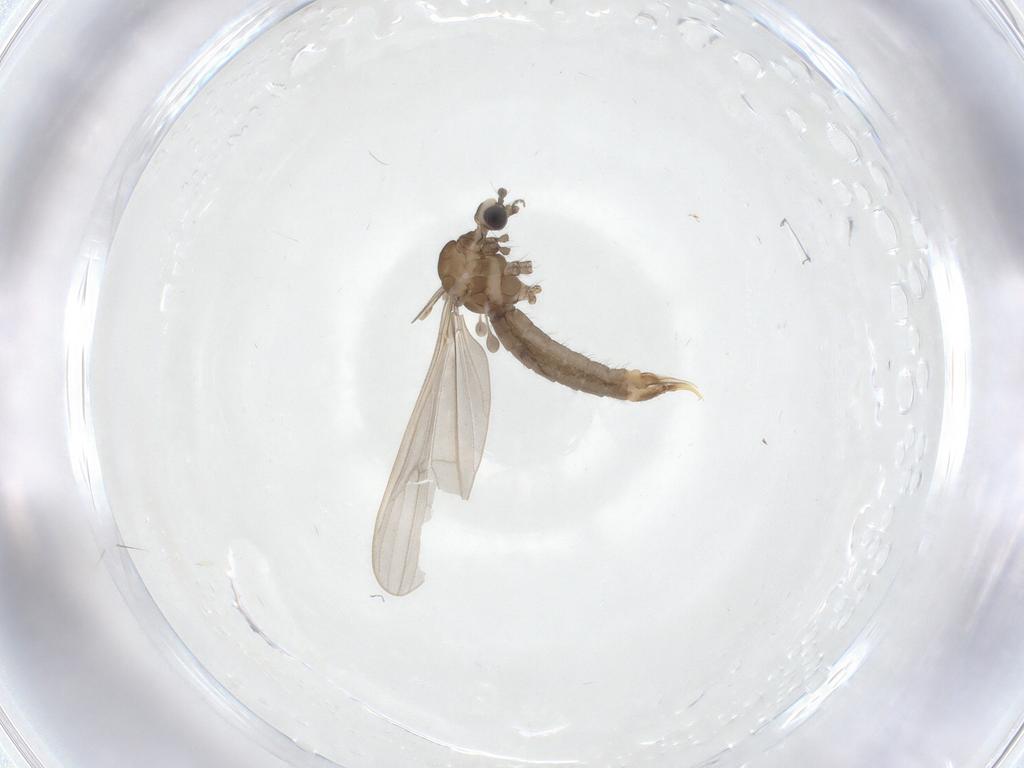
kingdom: Animalia
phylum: Arthropoda
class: Insecta
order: Diptera
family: Limoniidae
